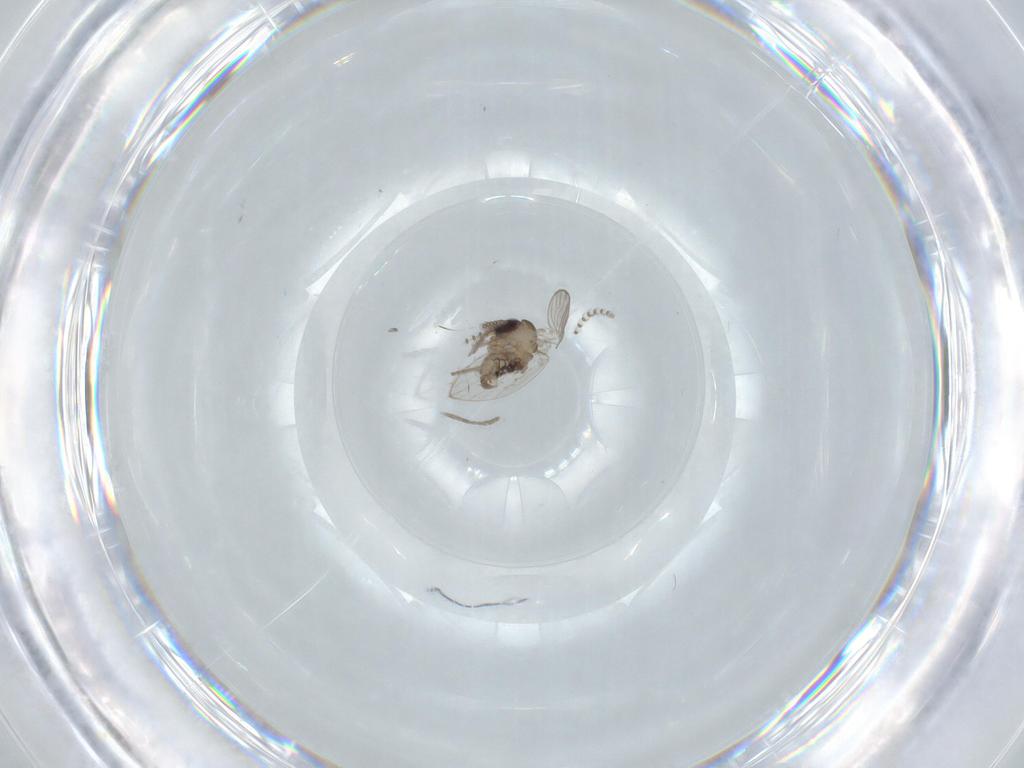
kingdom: Animalia
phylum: Arthropoda
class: Insecta
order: Diptera
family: Psychodidae
